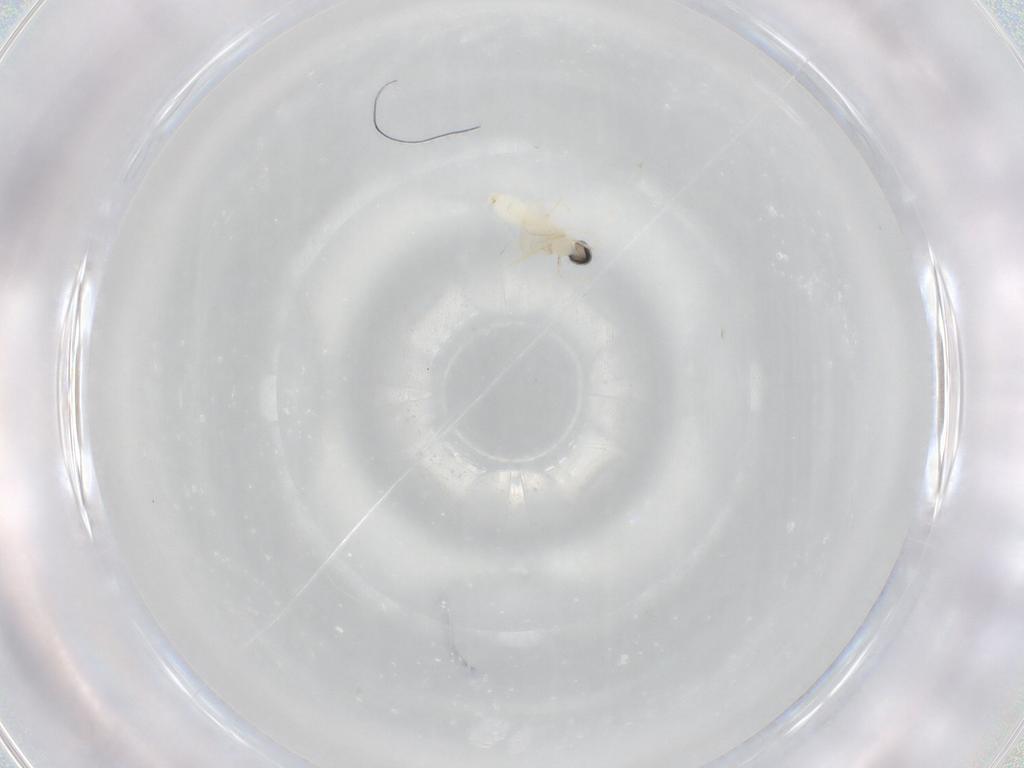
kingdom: Animalia
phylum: Arthropoda
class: Insecta
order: Diptera
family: Cecidomyiidae
